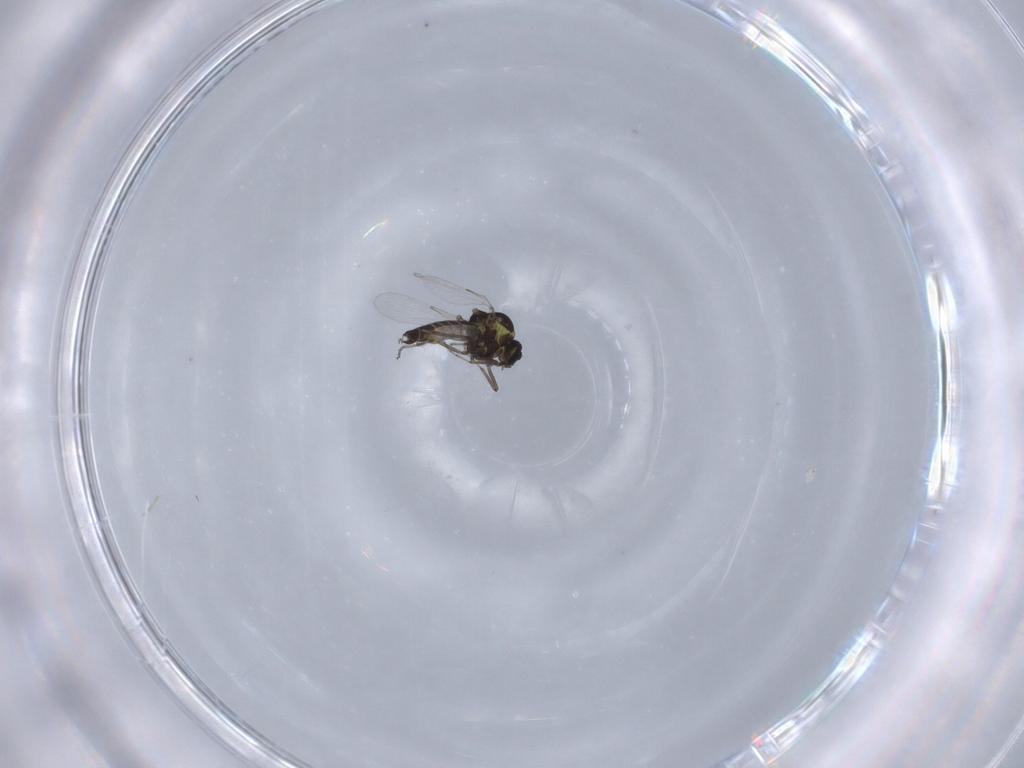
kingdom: Animalia
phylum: Arthropoda
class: Insecta
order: Diptera
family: Ceratopogonidae
